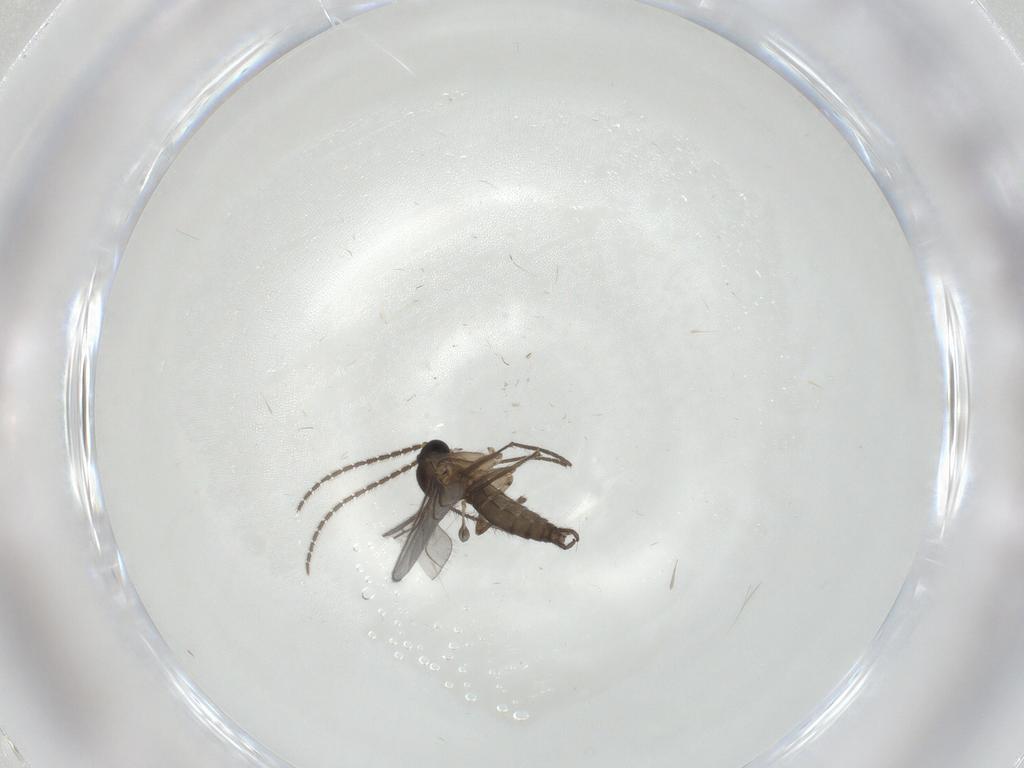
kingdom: Animalia
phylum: Arthropoda
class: Insecta
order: Diptera
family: Sciaridae
